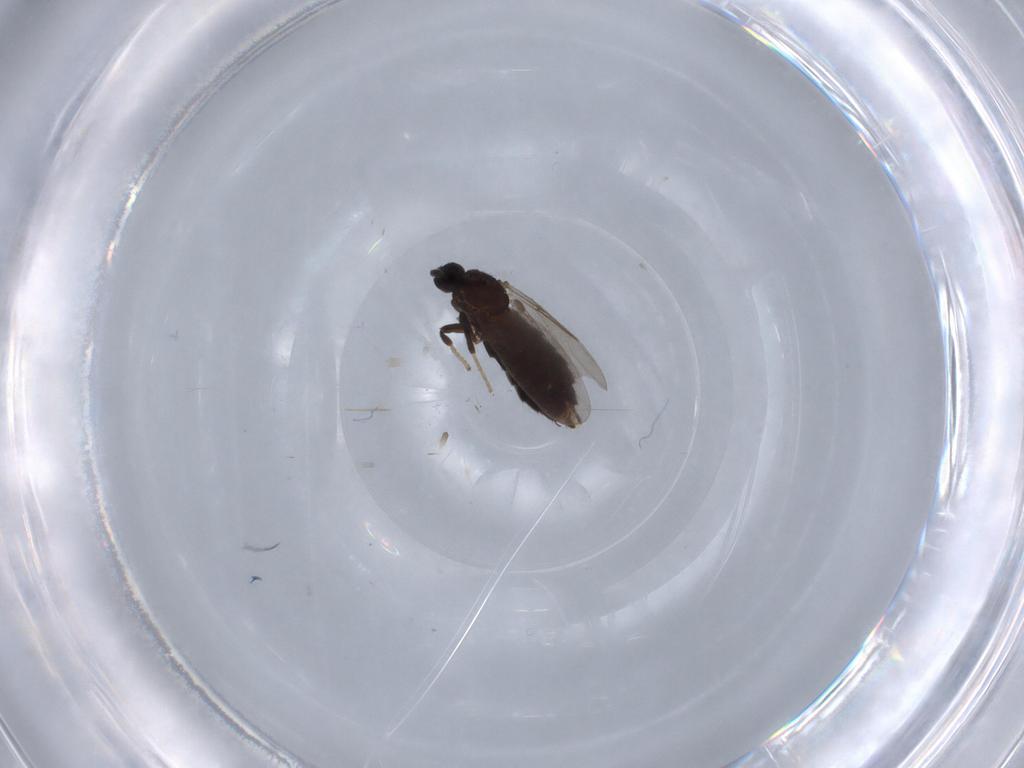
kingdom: Animalia
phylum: Arthropoda
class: Insecta
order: Diptera
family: Scatopsidae
